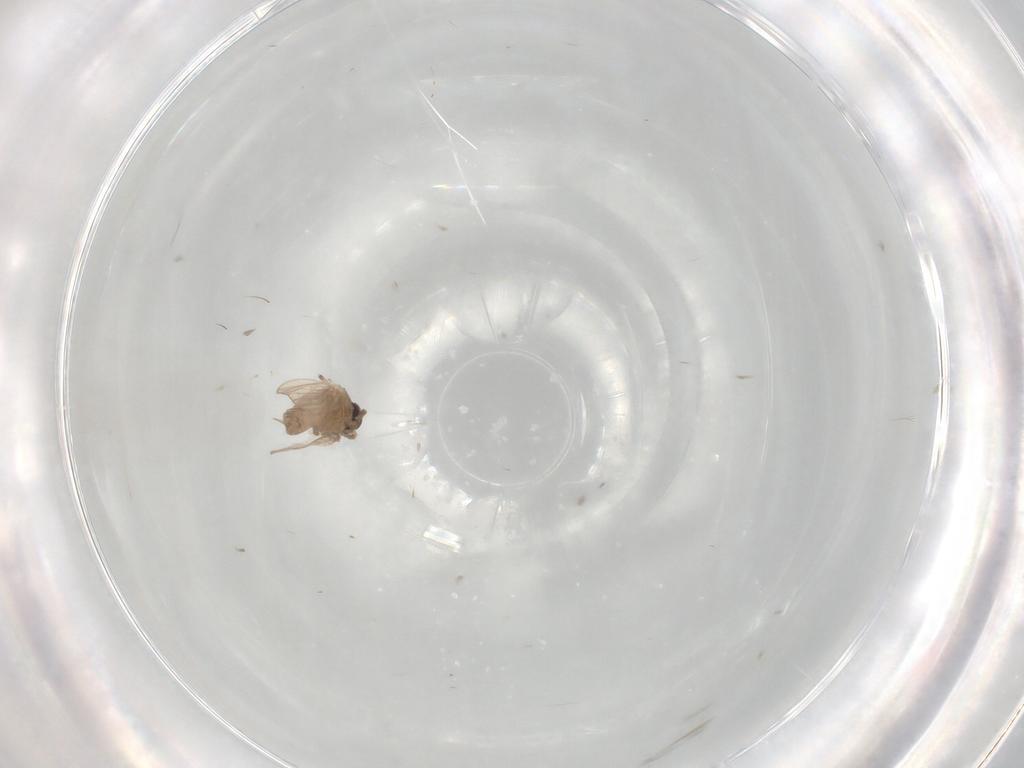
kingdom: Animalia
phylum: Arthropoda
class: Insecta
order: Diptera
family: Psychodidae
